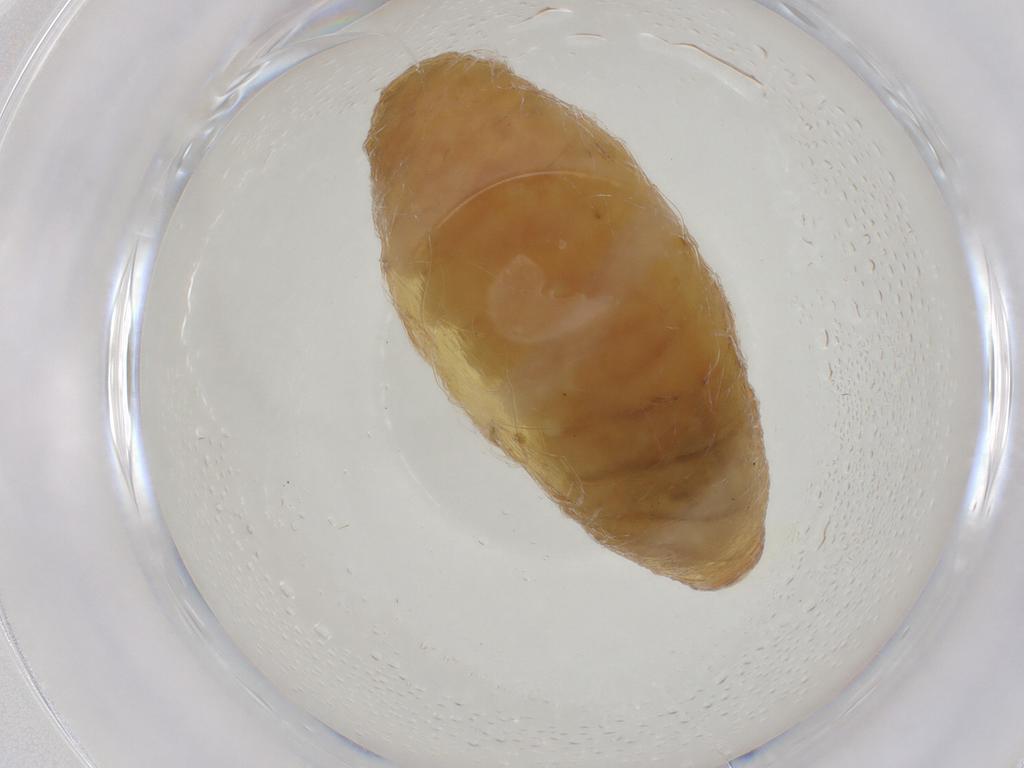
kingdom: Animalia
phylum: Arthropoda
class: Insecta
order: Hymenoptera
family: Braconidae
